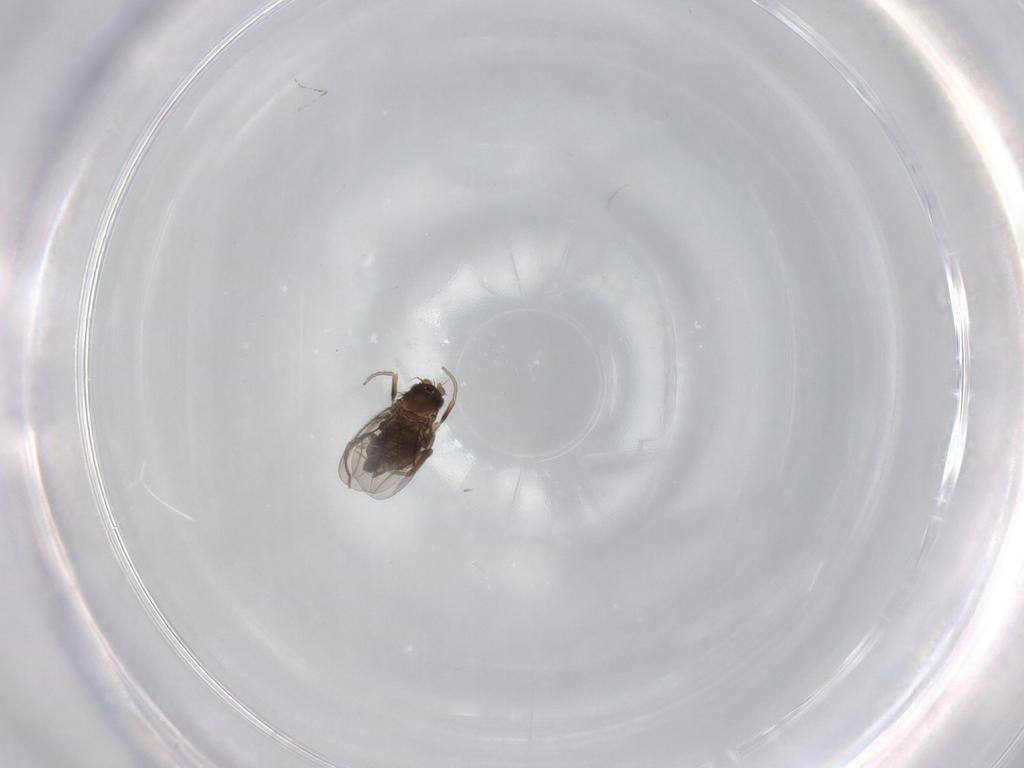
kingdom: Animalia
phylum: Arthropoda
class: Insecta
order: Diptera
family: Phoridae
